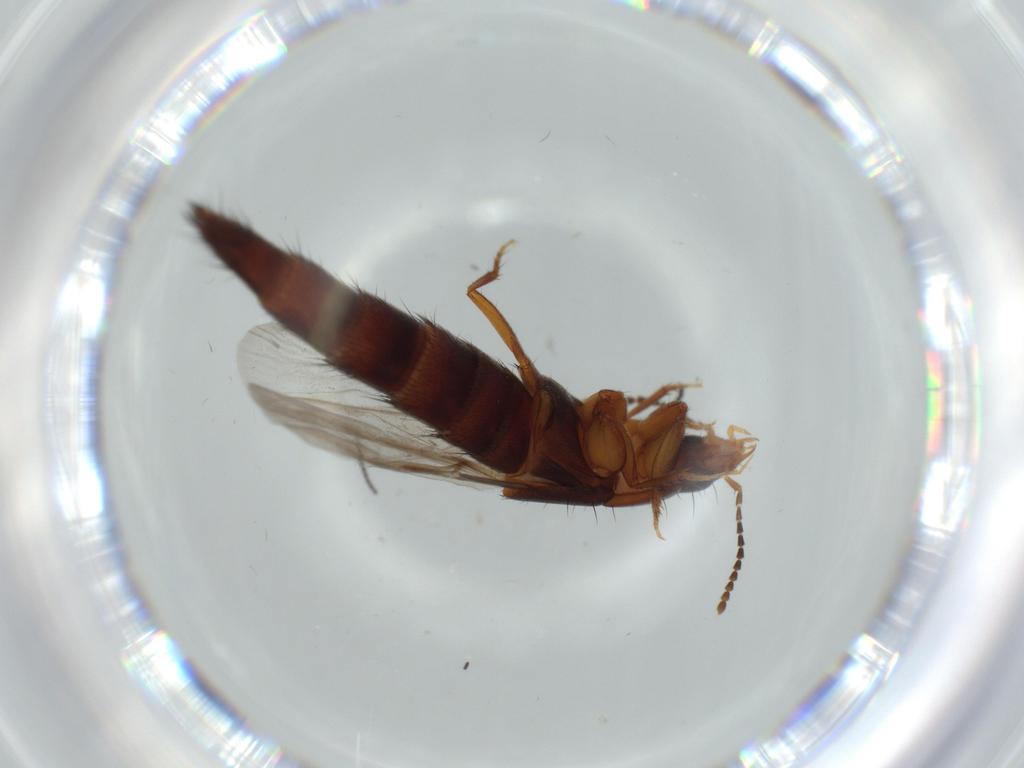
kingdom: Animalia
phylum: Arthropoda
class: Insecta
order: Coleoptera
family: Staphylinidae
